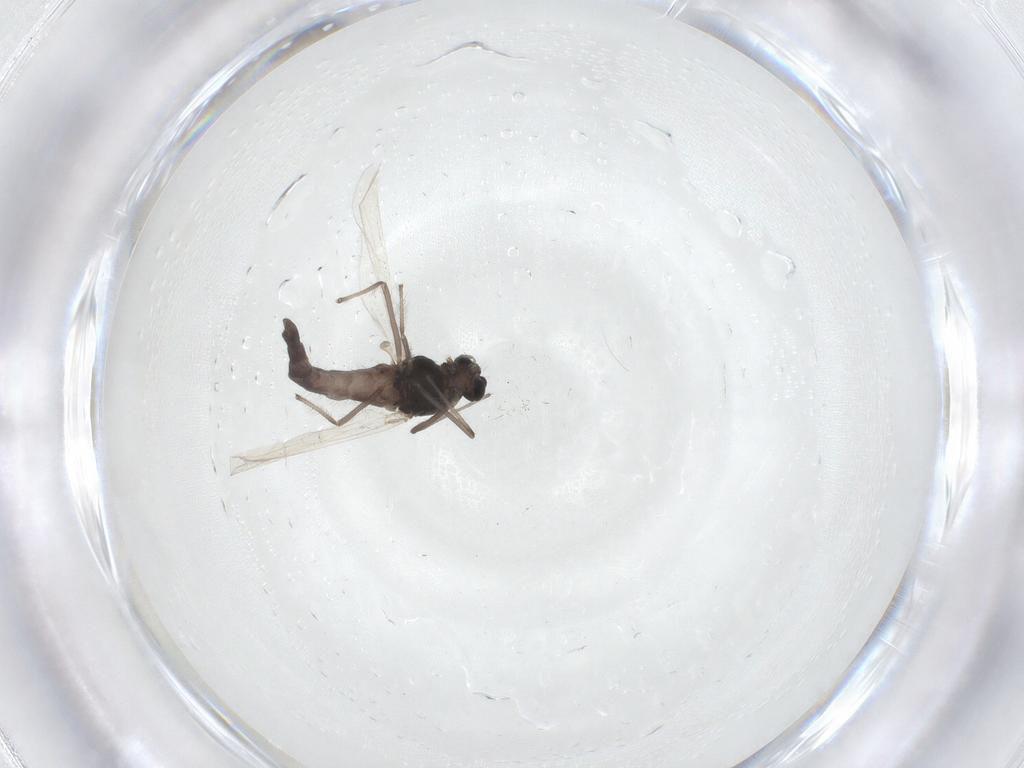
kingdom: Animalia
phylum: Arthropoda
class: Insecta
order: Diptera
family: Chironomidae
